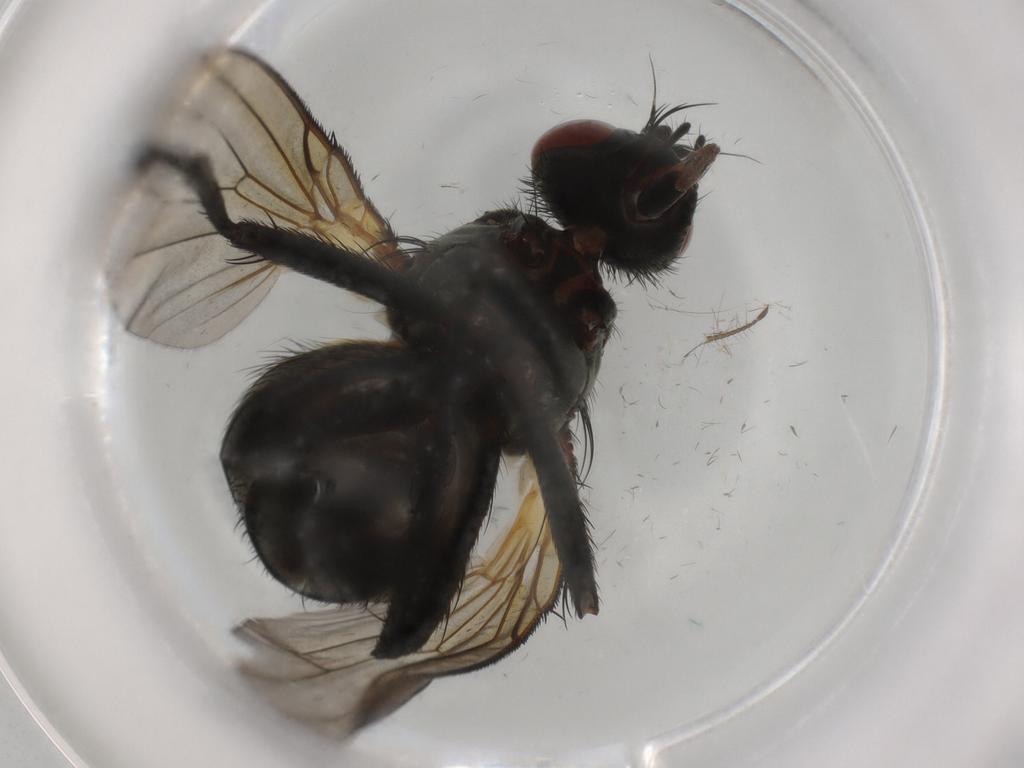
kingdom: Animalia
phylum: Arthropoda
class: Insecta
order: Diptera
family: Anthomyiidae
